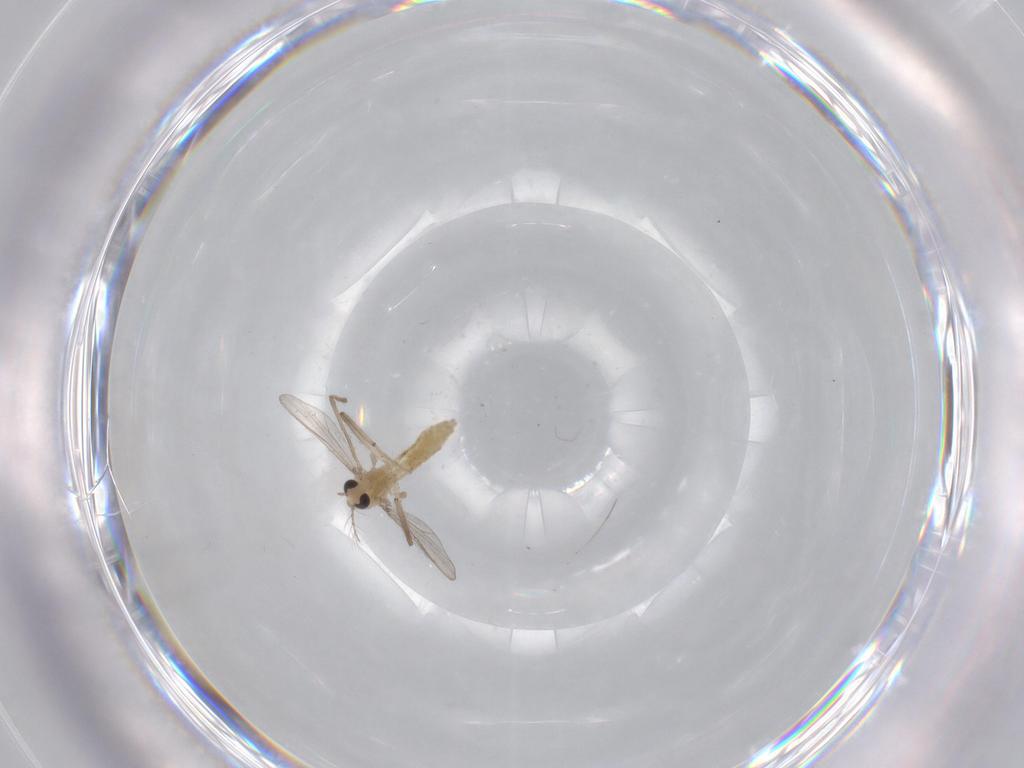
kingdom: Animalia
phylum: Arthropoda
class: Insecta
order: Diptera
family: Chironomidae
